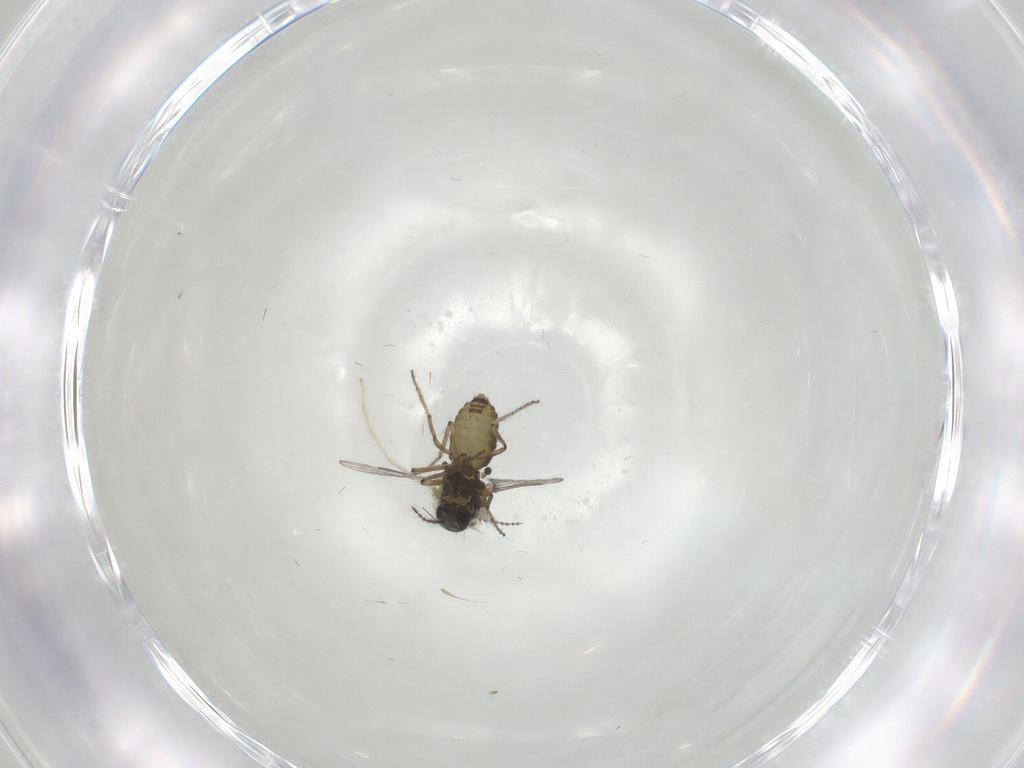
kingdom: Animalia
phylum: Arthropoda
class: Insecta
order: Diptera
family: Chironomidae
